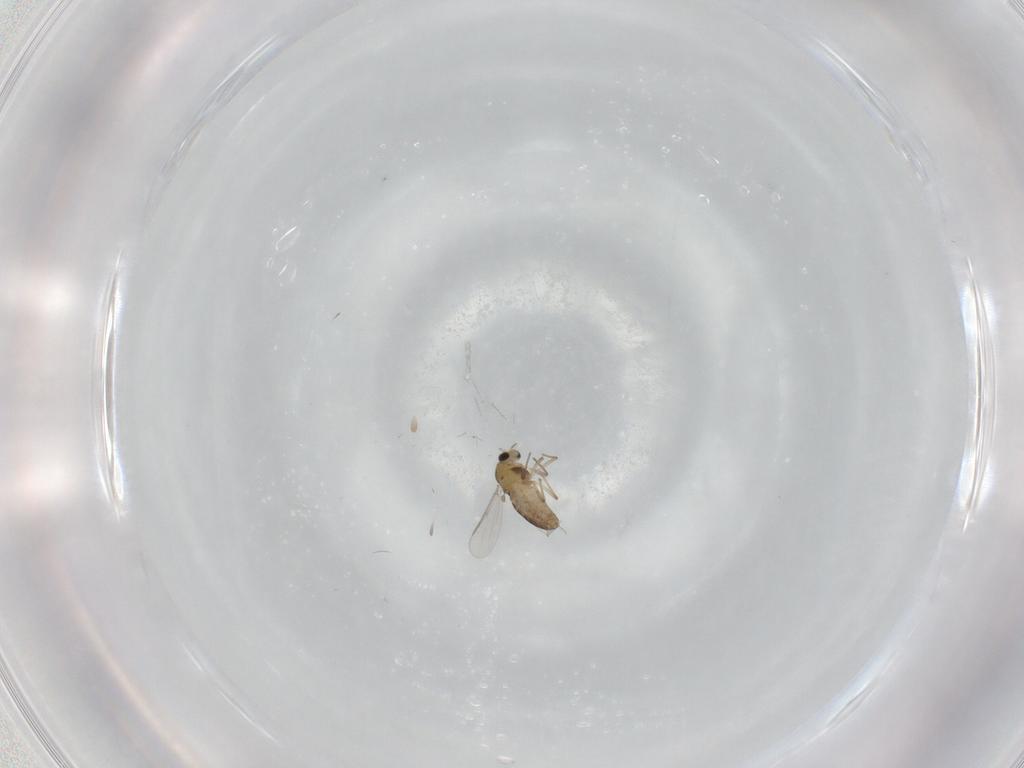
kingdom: Animalia
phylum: Arthropoda
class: Insecta
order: Diptera
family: Chironomidae
